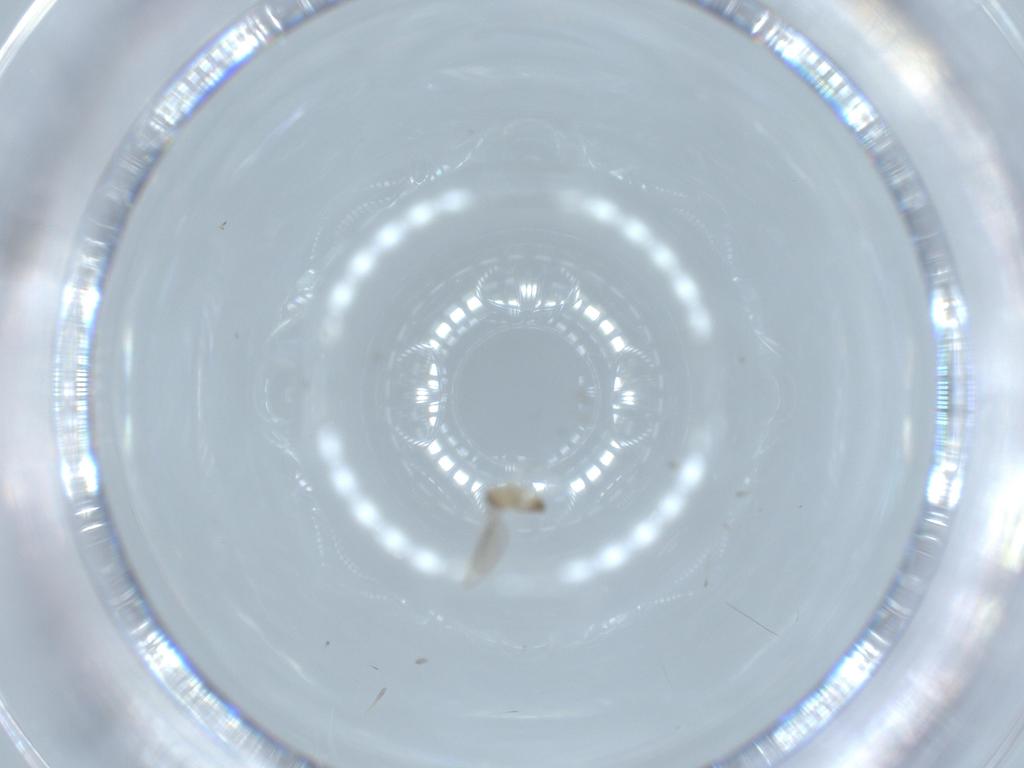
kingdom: Animalia
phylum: Arthropoda
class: Insecta
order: Diptera
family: Cecidomyiidae
